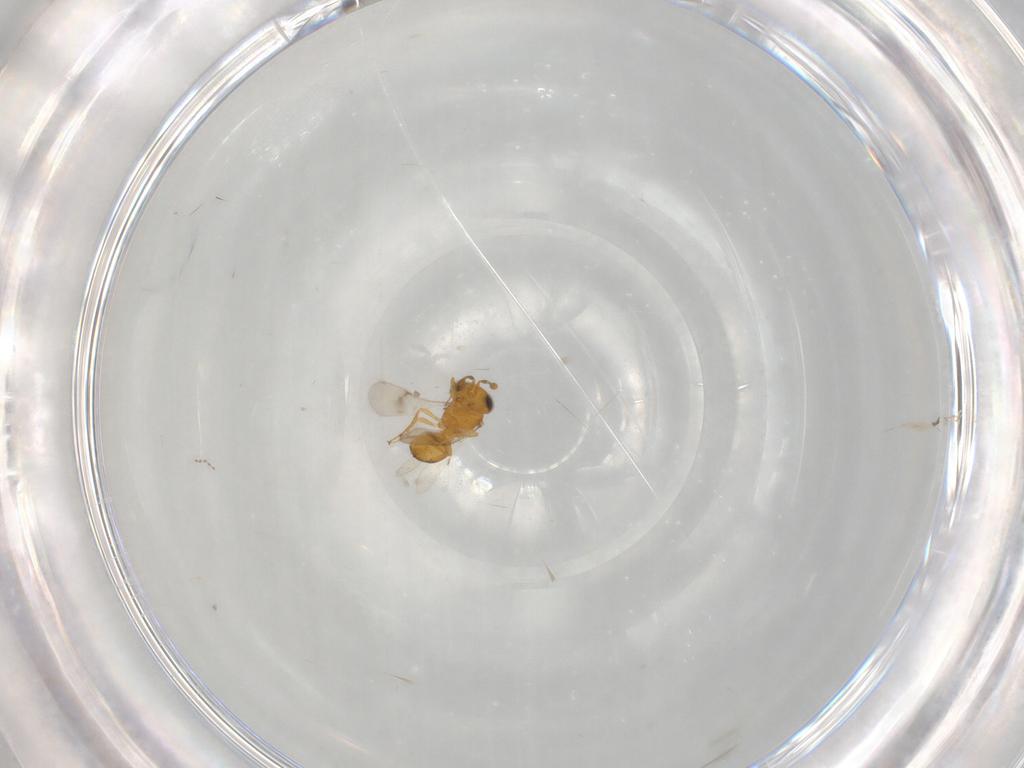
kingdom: Animalia
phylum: Arthropoda
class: Insecta
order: Hymenoptera
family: Scelionidae
